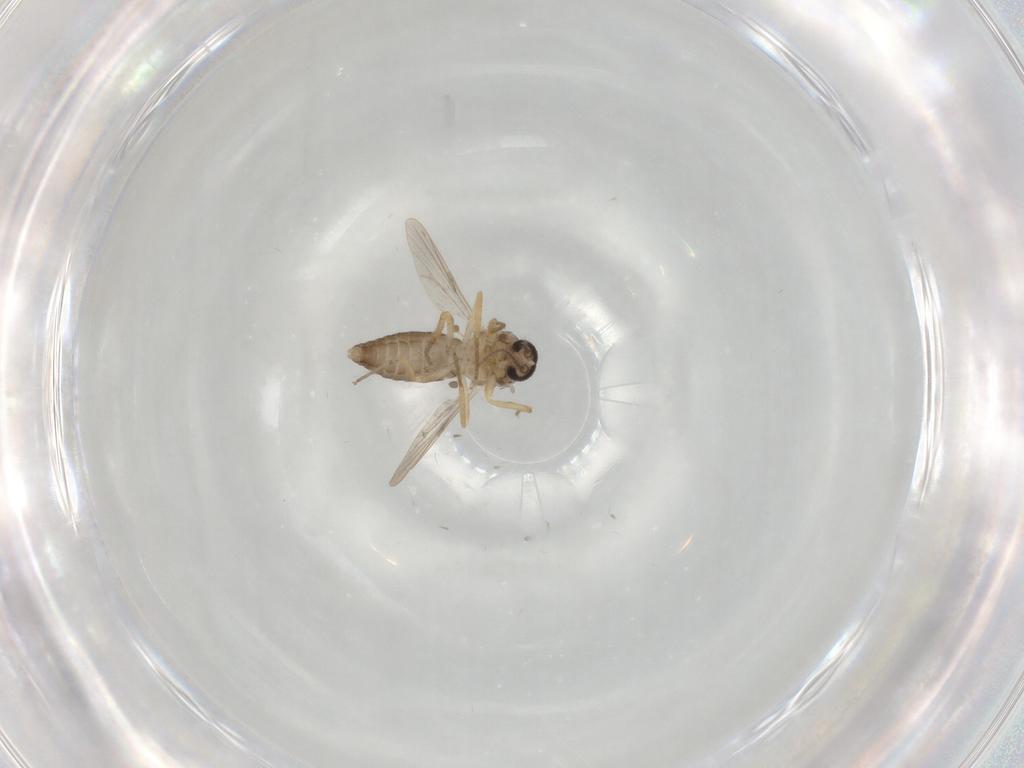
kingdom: Animalia
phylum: Arthropoda
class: Insecta
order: Diptera
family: Ceratopogonidae
